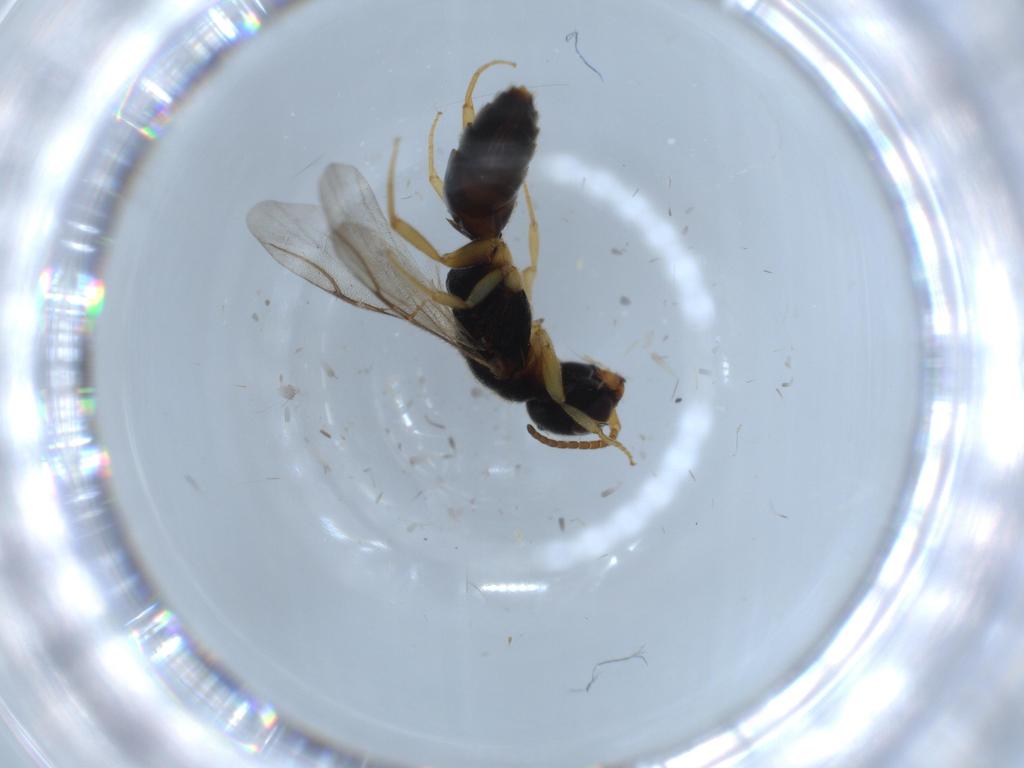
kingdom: Animalia
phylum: Arthropoda
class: Insecta
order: Hymenoptera
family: Bethylidae
